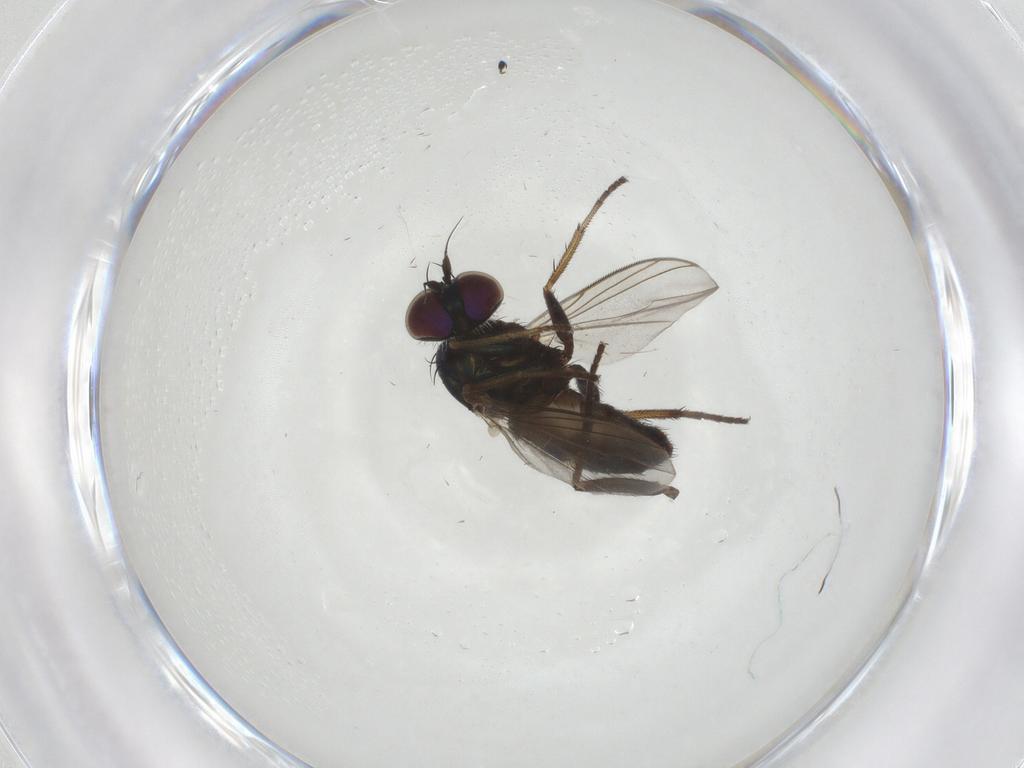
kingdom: Animalia
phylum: Arthropoda
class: Insecta
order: Diptera
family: Dolichopodidae
